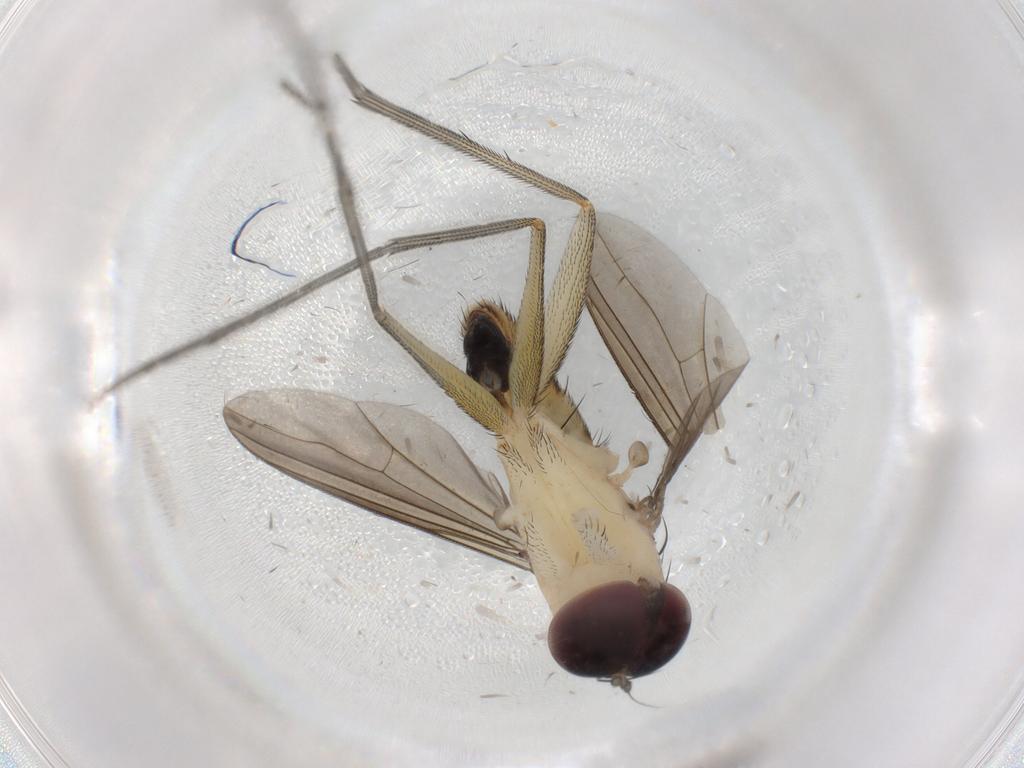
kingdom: Animalia
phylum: Arthropoda
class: Insecta
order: Diptera
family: Dolichopodidae
